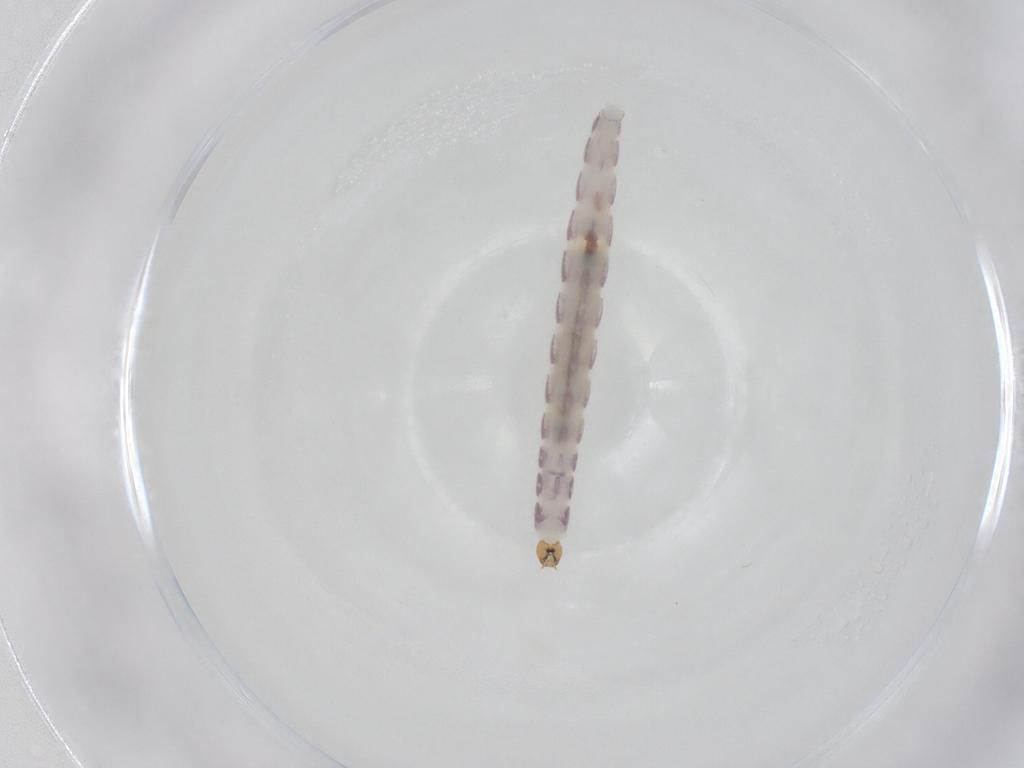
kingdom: Animalia
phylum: Arthropoda
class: Insecta
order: Diptera
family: Chironomidae
